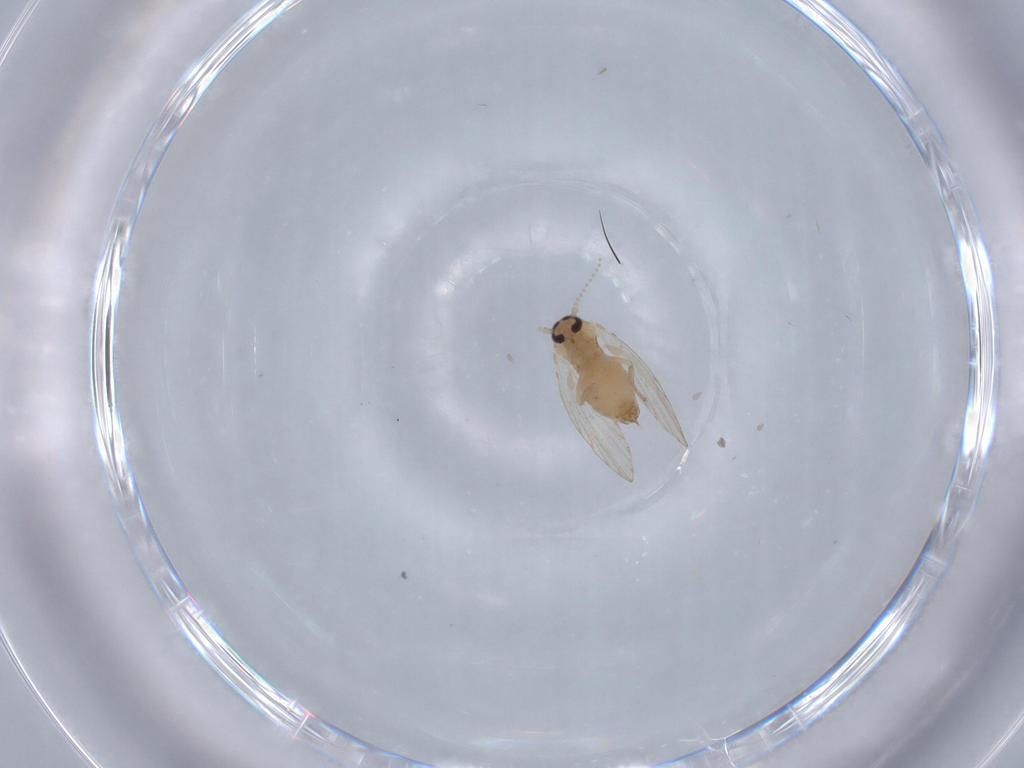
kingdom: Animalia
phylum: Arthropoda
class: Insecta
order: Diptera
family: Psychodidae
